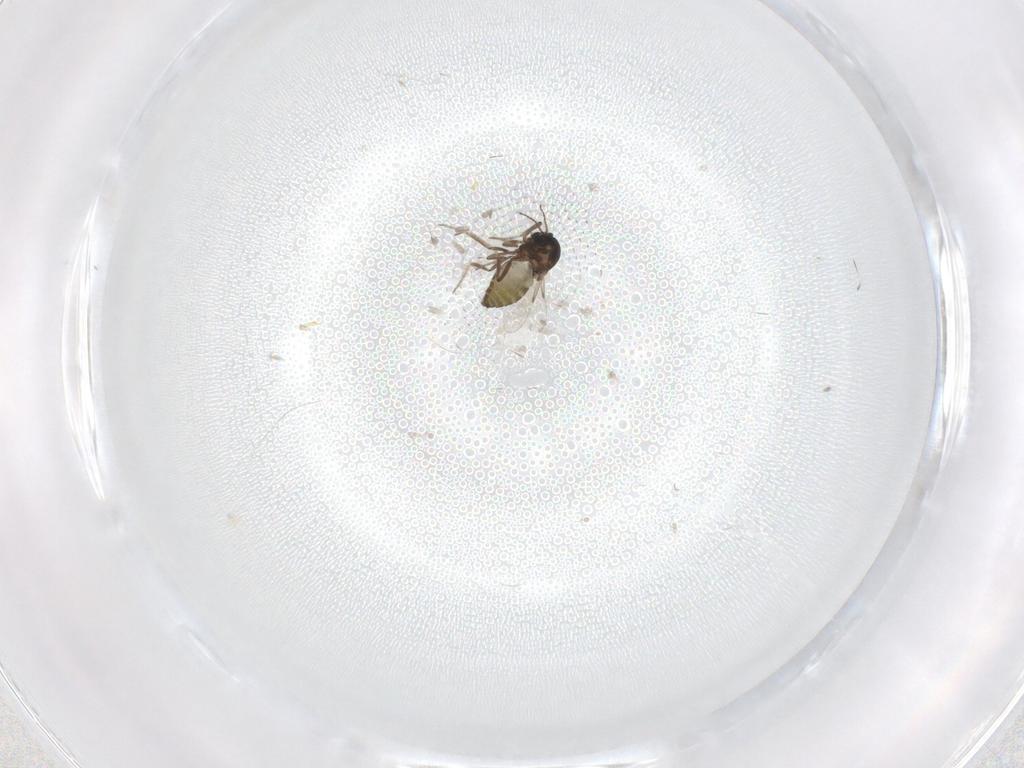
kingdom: Animalia
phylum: Arthropoda
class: Insecta
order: Diptera
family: Ceratopogonidae
